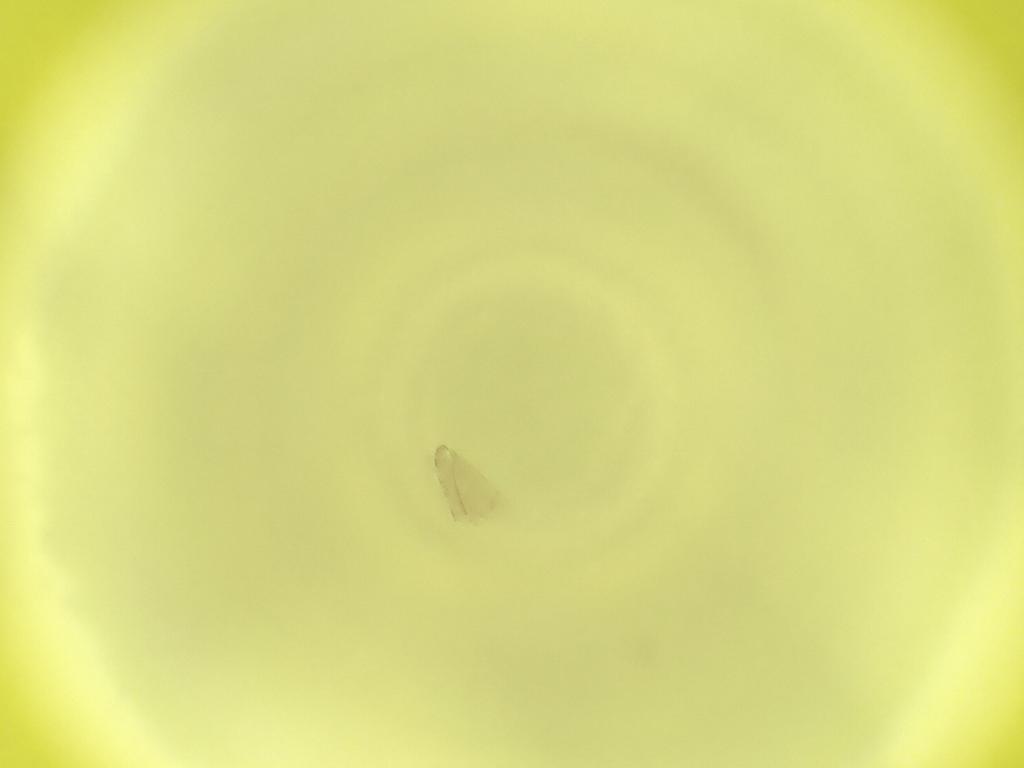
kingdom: Animalia
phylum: Arthropoda
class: Insecta
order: Diptera
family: Cecidomyiidae
